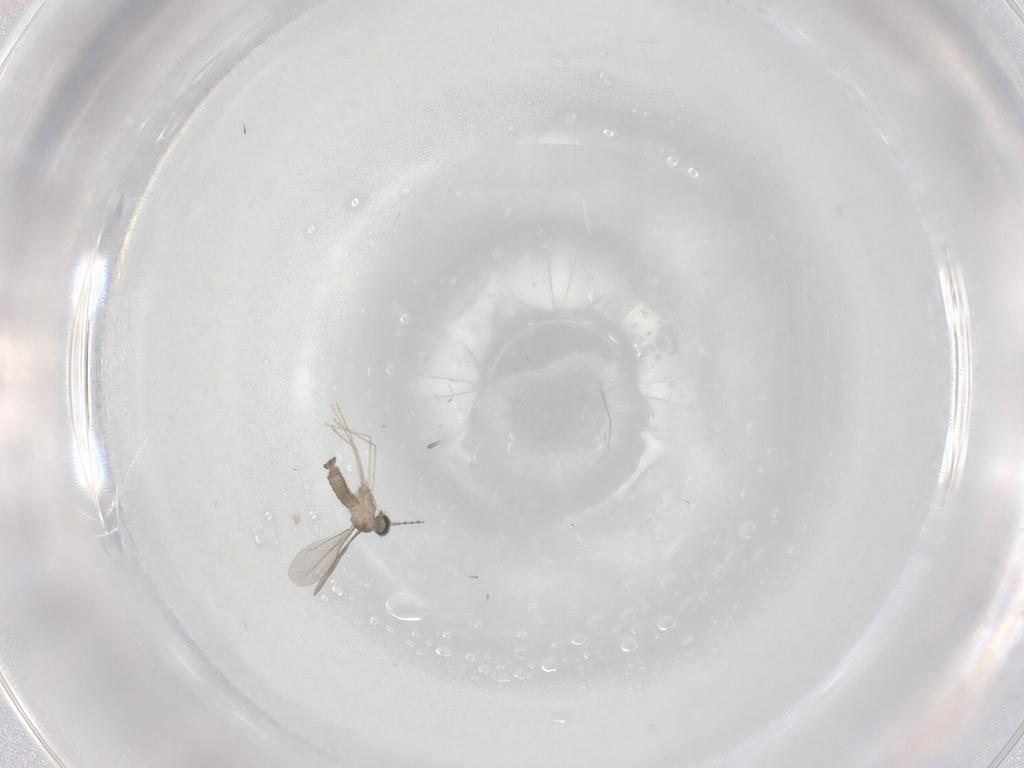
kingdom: Animalia
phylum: Arthropoda
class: Insecta
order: Diptera
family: Cecidomyiidae
